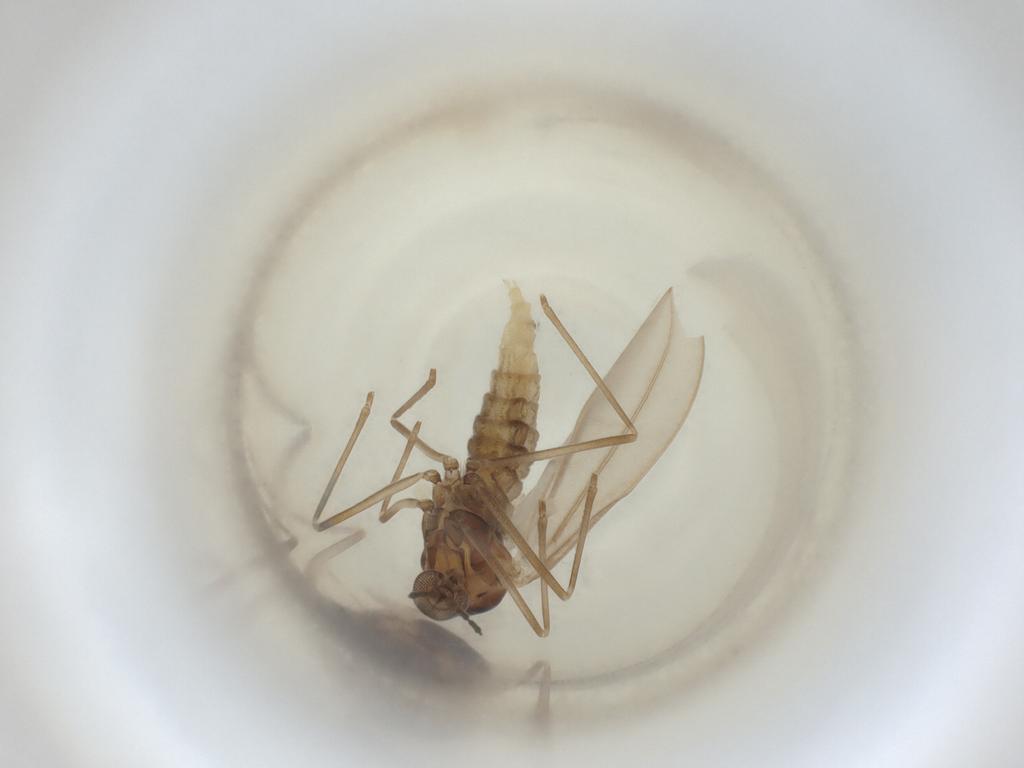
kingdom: Animalia
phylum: Arthropoda
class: Insecta
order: Diptera
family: Cecidomyiidae
